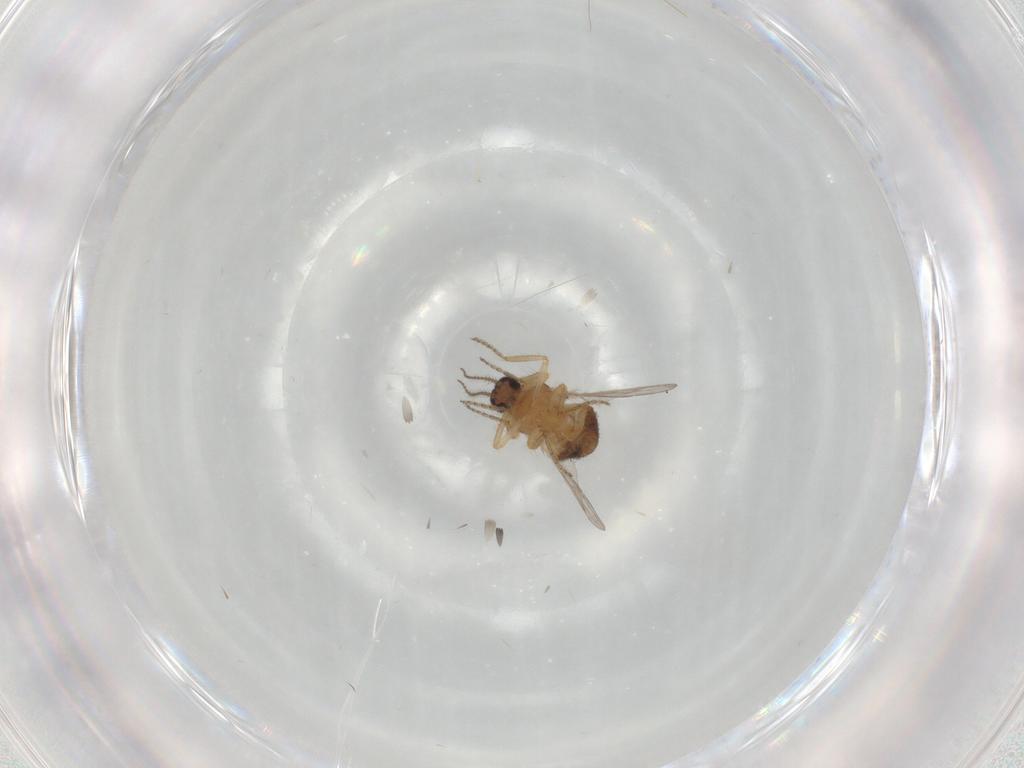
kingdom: Animalia
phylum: Arthropoda
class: Insecta
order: Diptera
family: Ceratopogonidae
